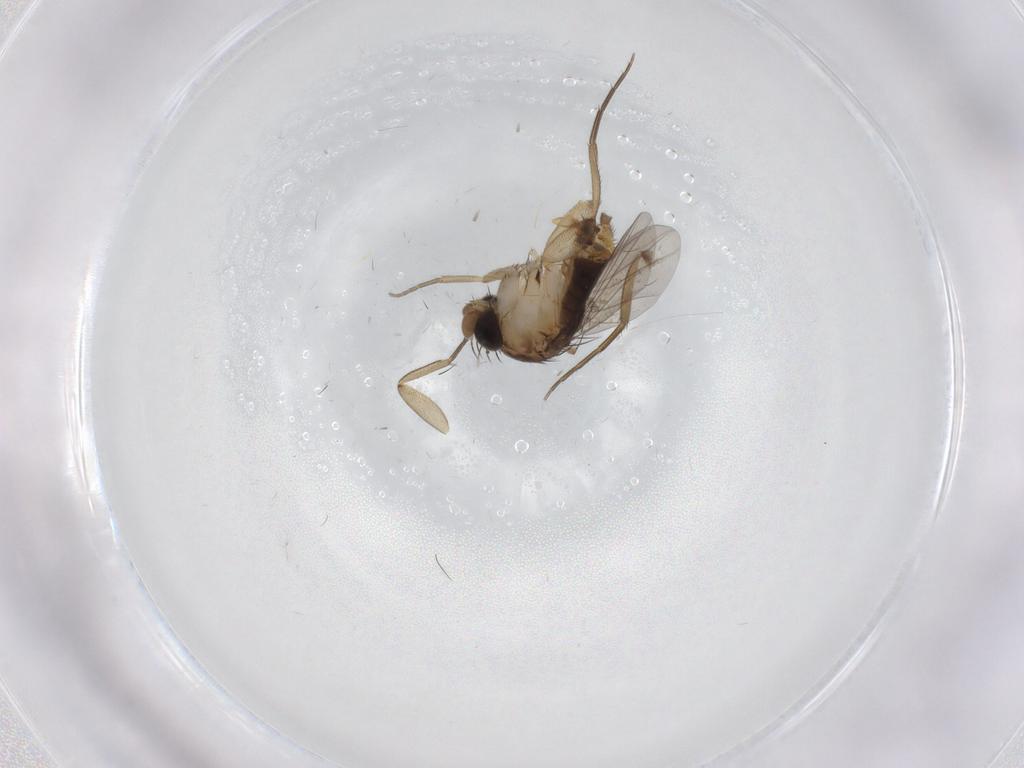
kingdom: Animalia
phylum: Arthropoda
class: Insecta
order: Diptera
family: Phoridae
